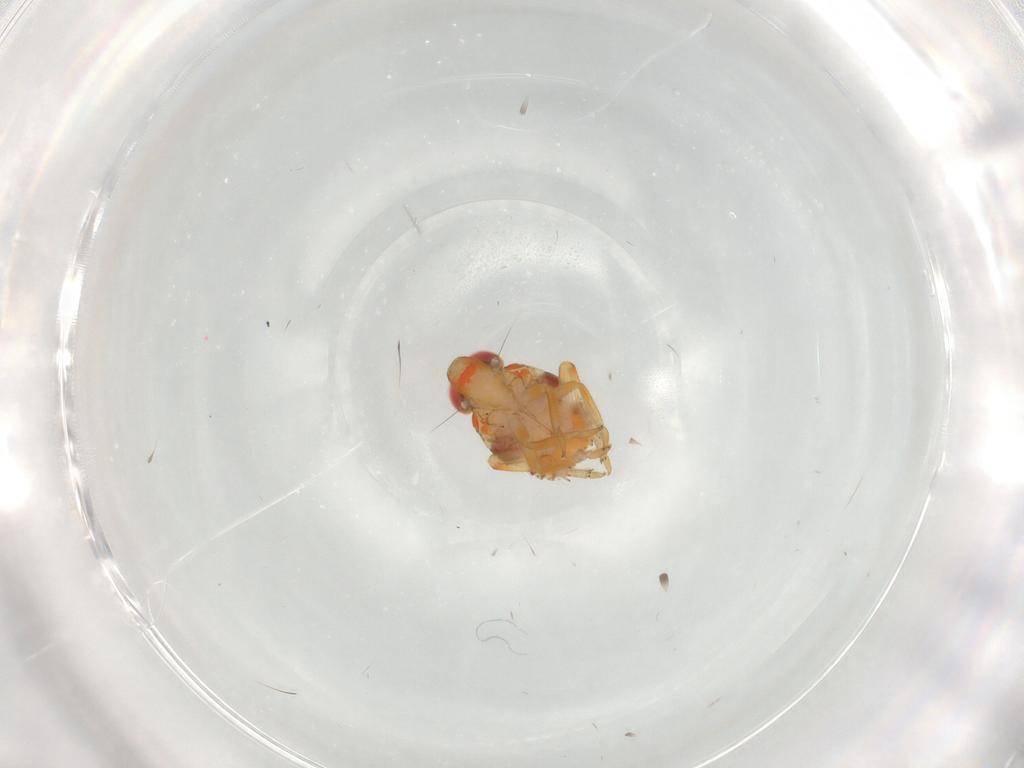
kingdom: Animalia
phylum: Arthropoda
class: Insecta
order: Hemiptera
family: Issidae
